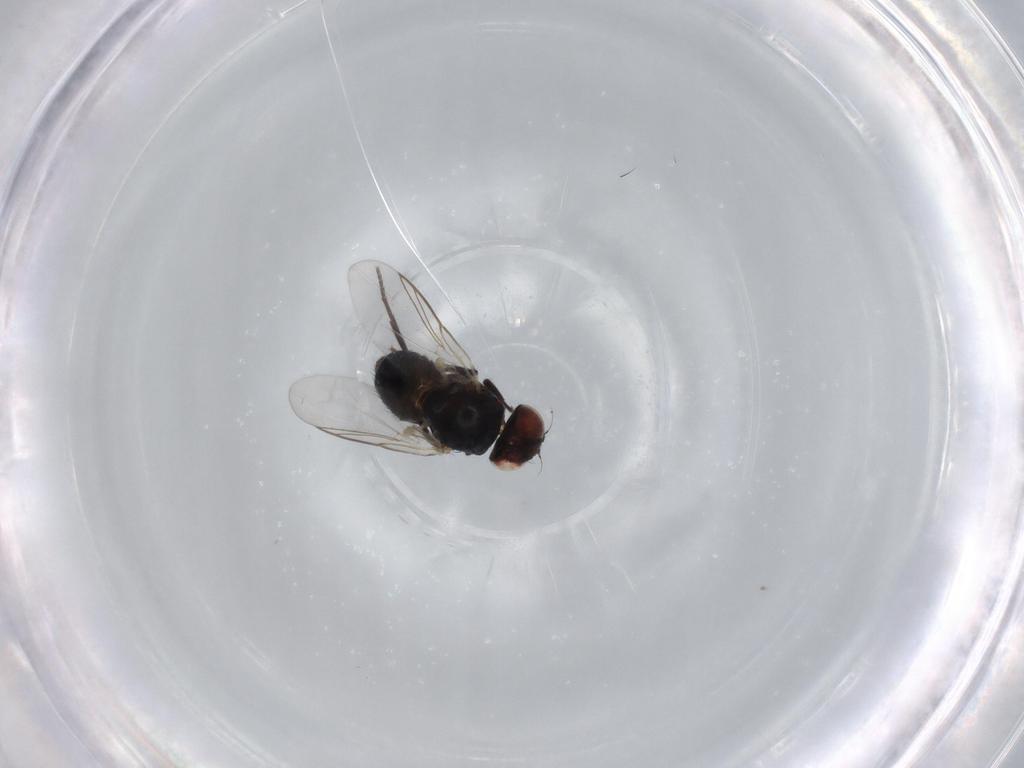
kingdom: Animalia
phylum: Arthropoda
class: Insecta
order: Diptera
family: Agromyzidae
